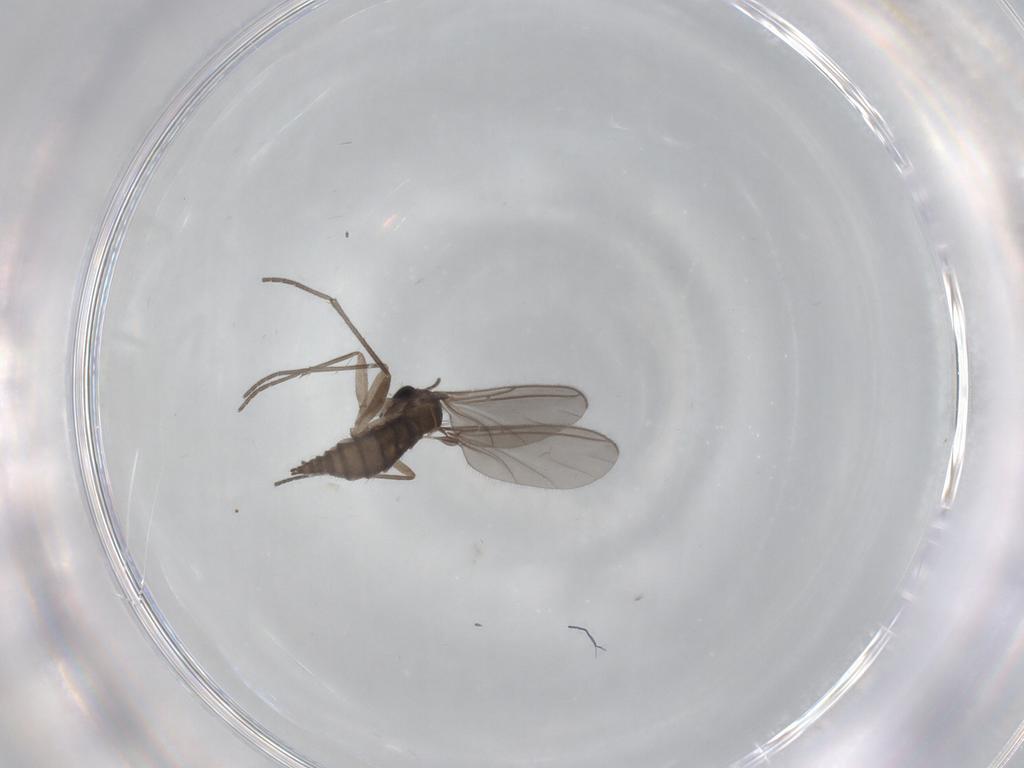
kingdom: Animalia
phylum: Arthropoda
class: Insecta
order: Diptera
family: Sciaridae
